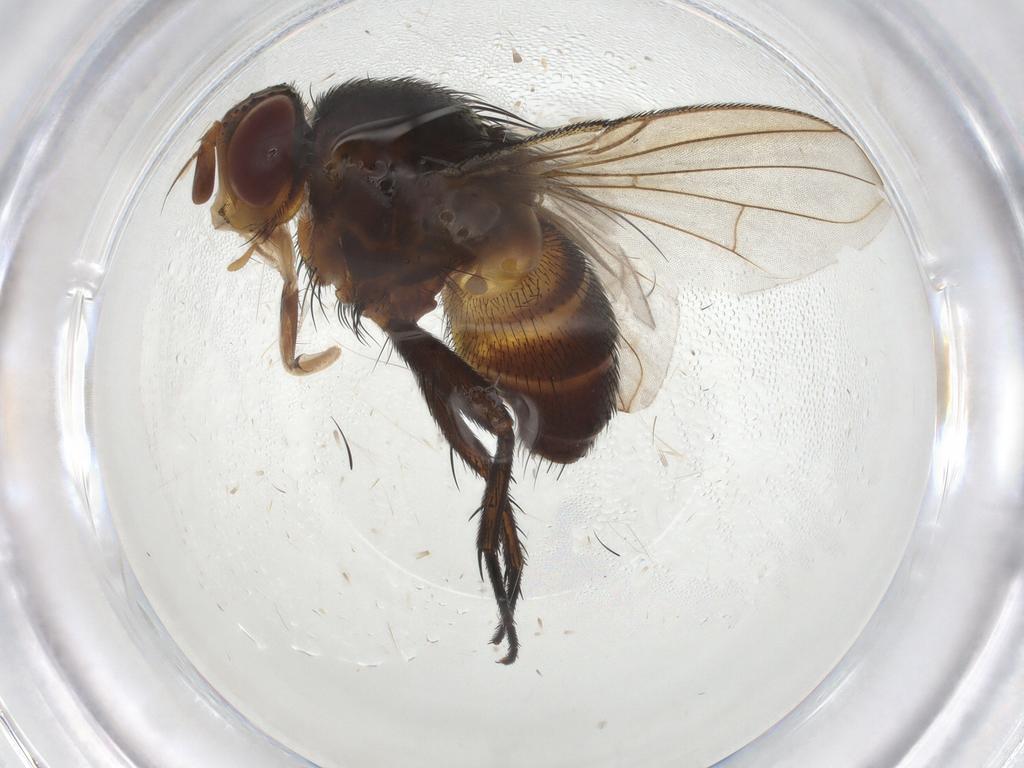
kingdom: Animalia
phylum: Arthropoda
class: Insecta
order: Diptera
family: Tachinidae
